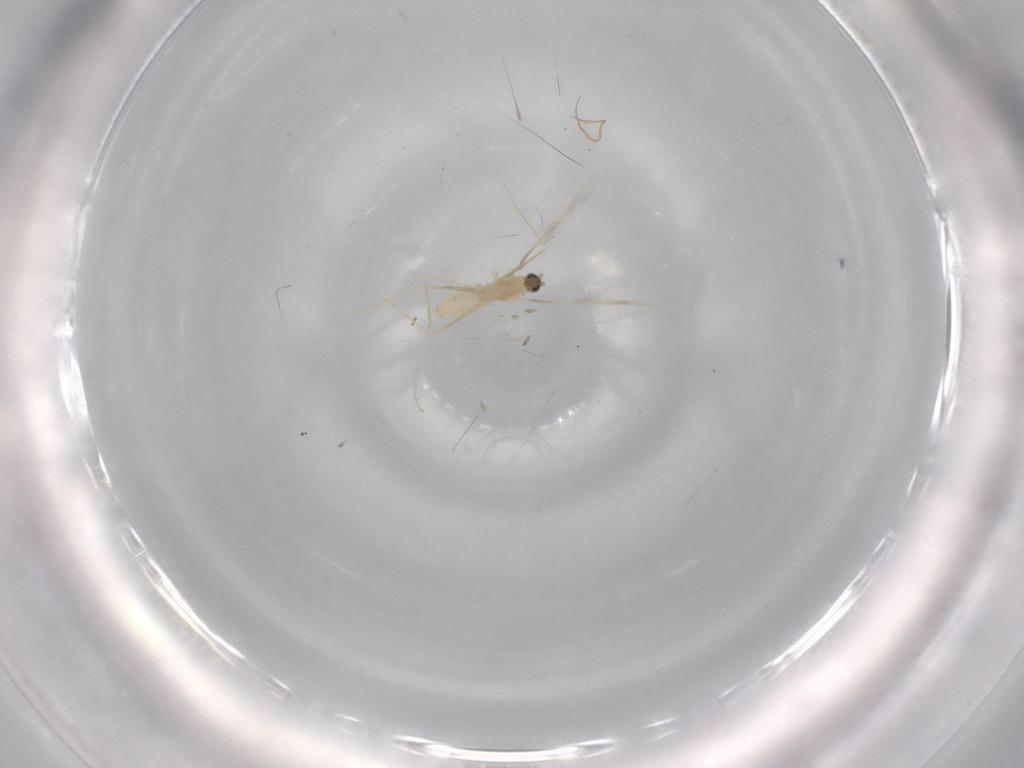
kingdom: Animalia
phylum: Arthropoda
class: Insecta
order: Diptera
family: Cecidomyiidae
